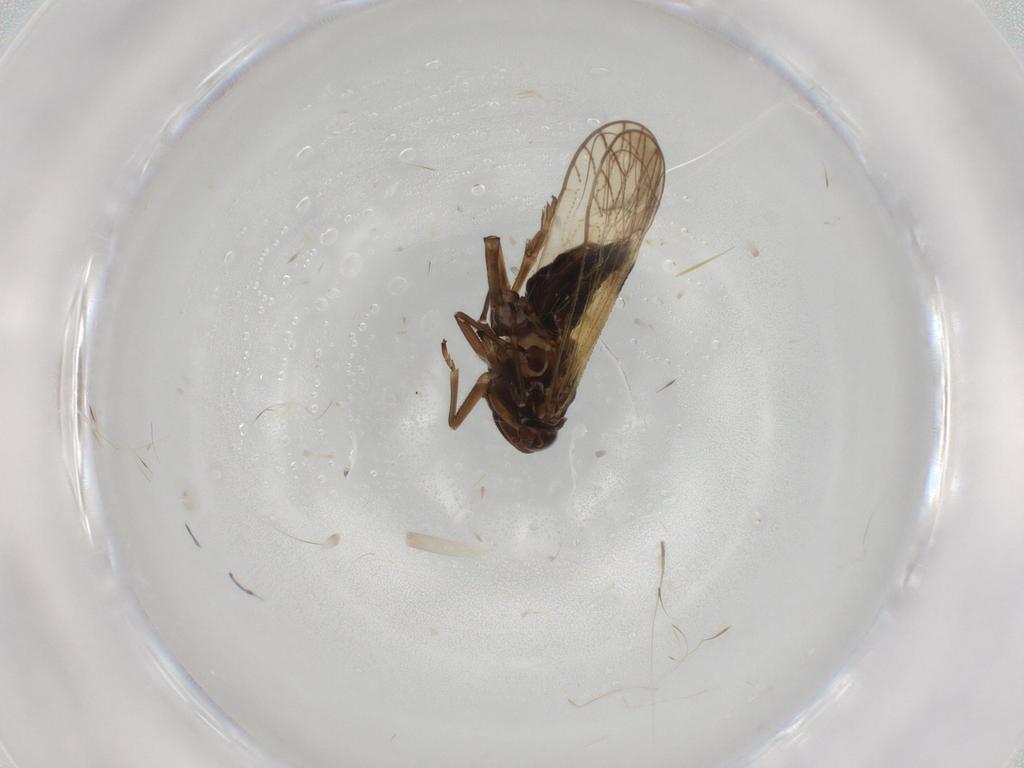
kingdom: Animalia
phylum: Arthropoda
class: Insecta
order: Hemiptera
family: Delphacidae
